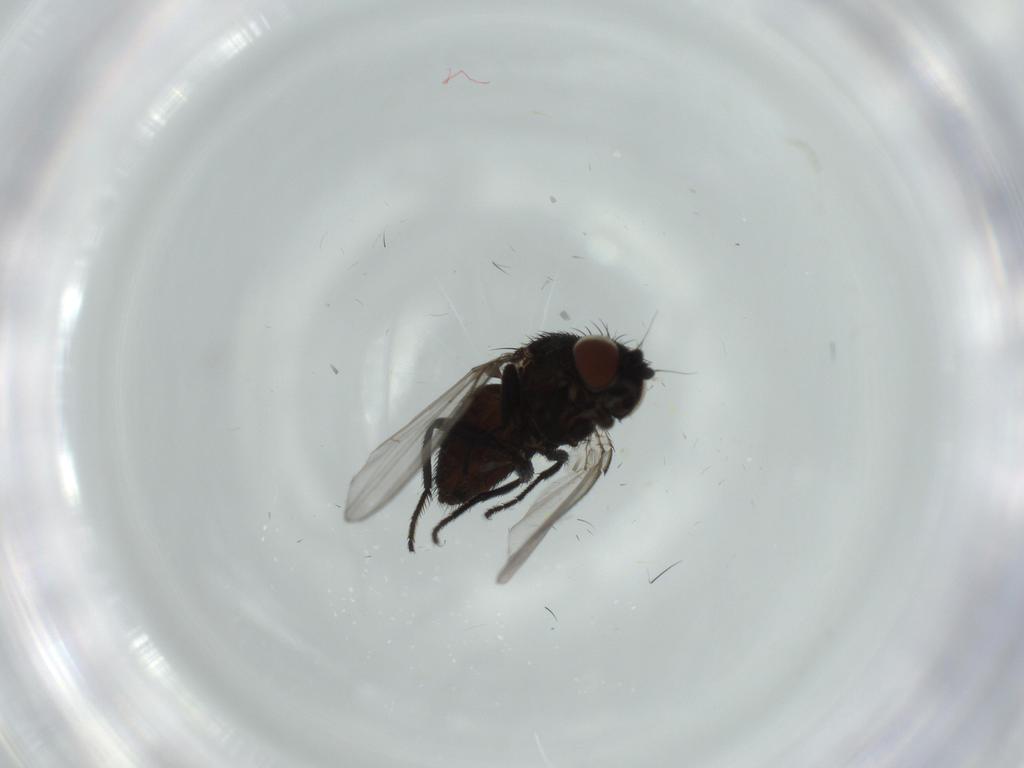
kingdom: Animalia
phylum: Arthropoda
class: Insecta
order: Diptera
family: Milichiidae
